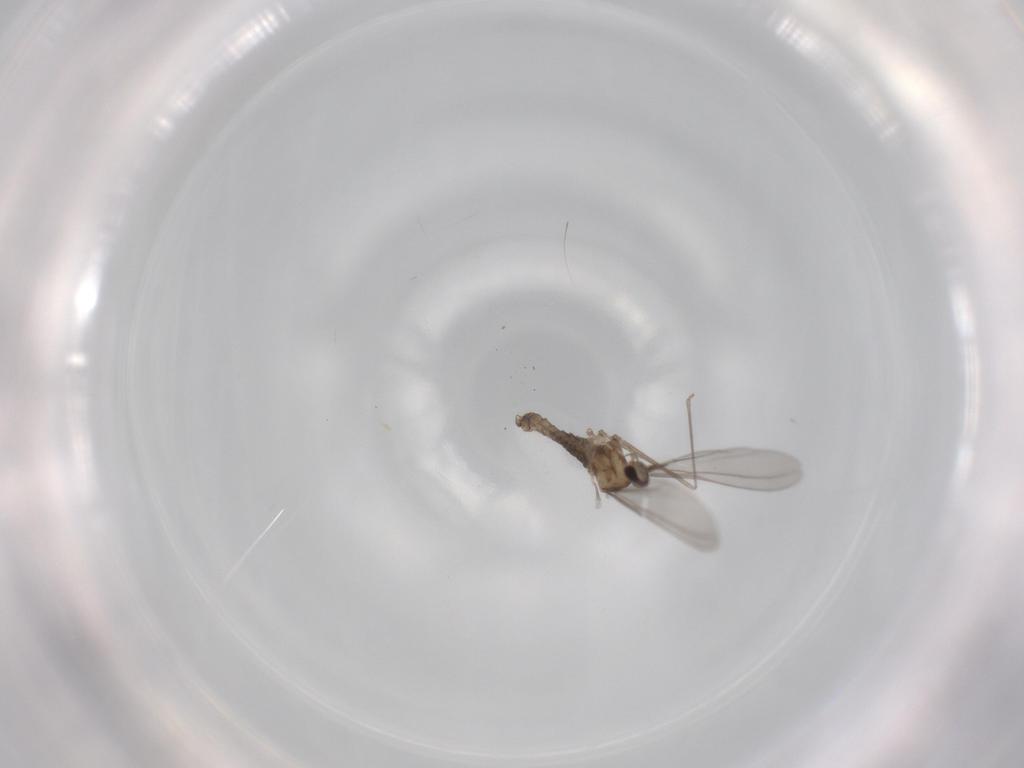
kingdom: Animalia
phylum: Arthropoda
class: Insecta
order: Diptera
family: Cecidomyiidae
